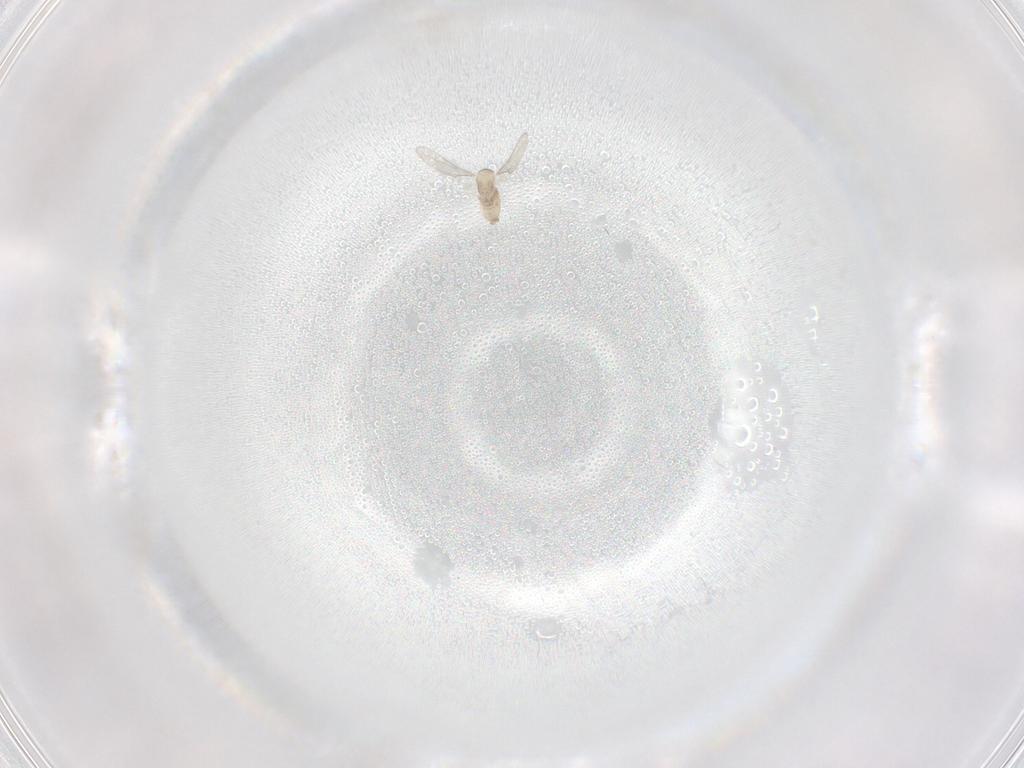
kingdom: Animalia
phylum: Arthropoda
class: Insecta
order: Diptera
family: Cecidomyiidae
